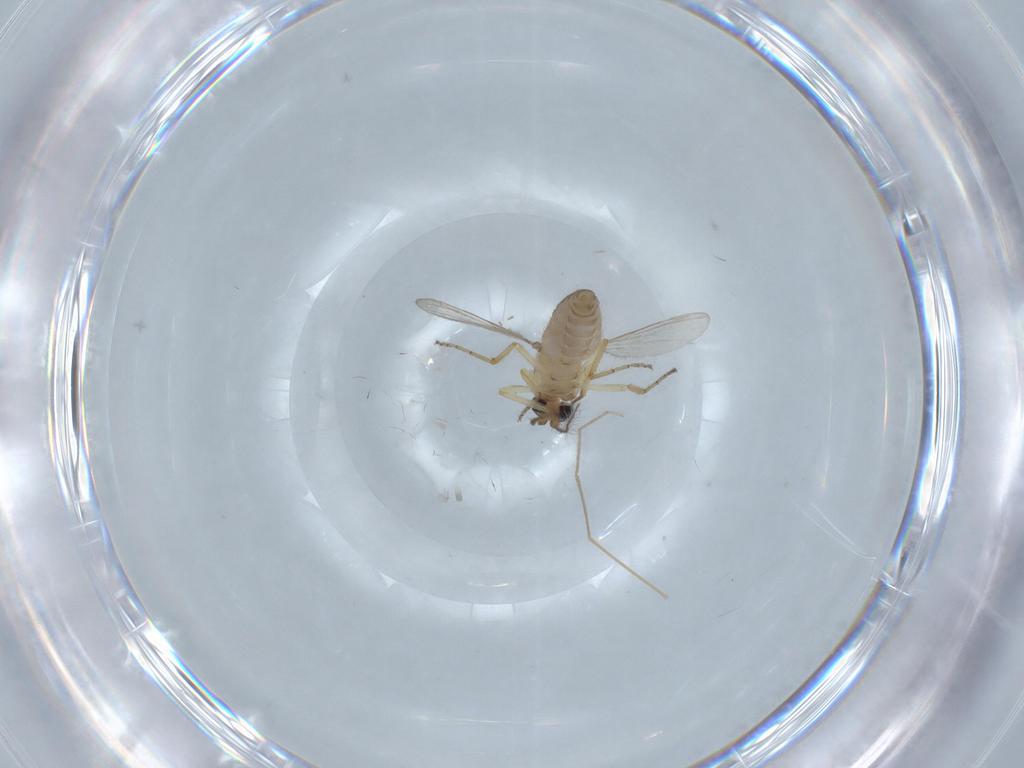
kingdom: Animalia
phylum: Arthropoda
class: Insecta
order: Diptera
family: Ceratopogonidae
